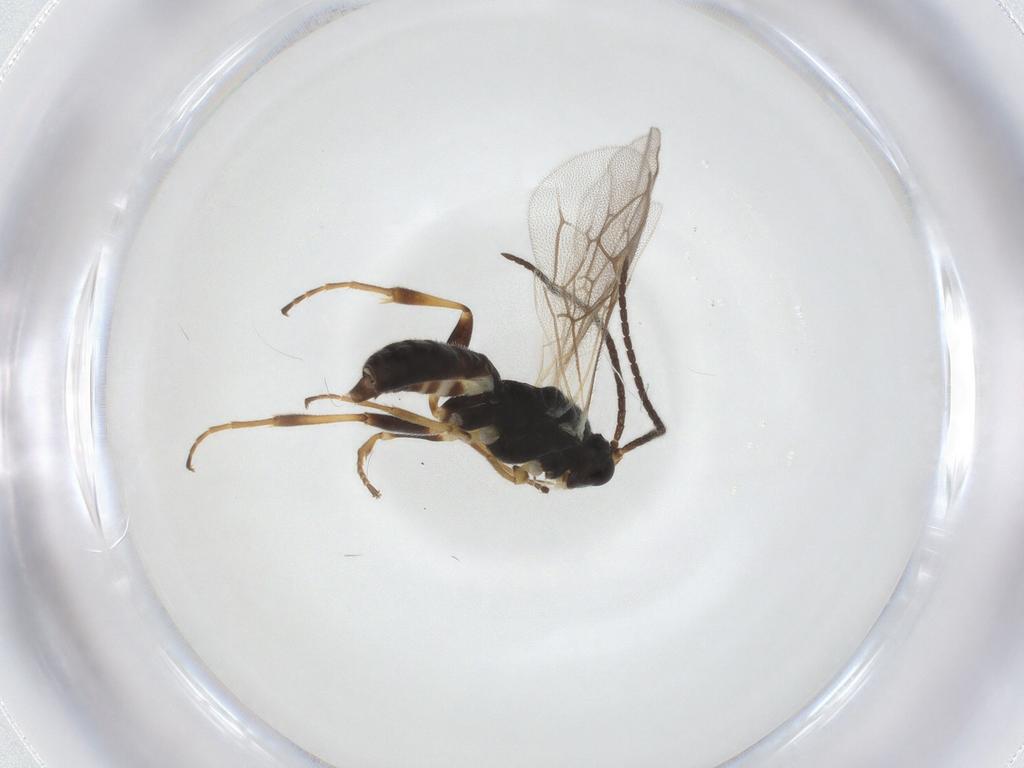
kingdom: Animalia
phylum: Arthropoda
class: Insecta
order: Hymenoptera
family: Ichneumonidae
